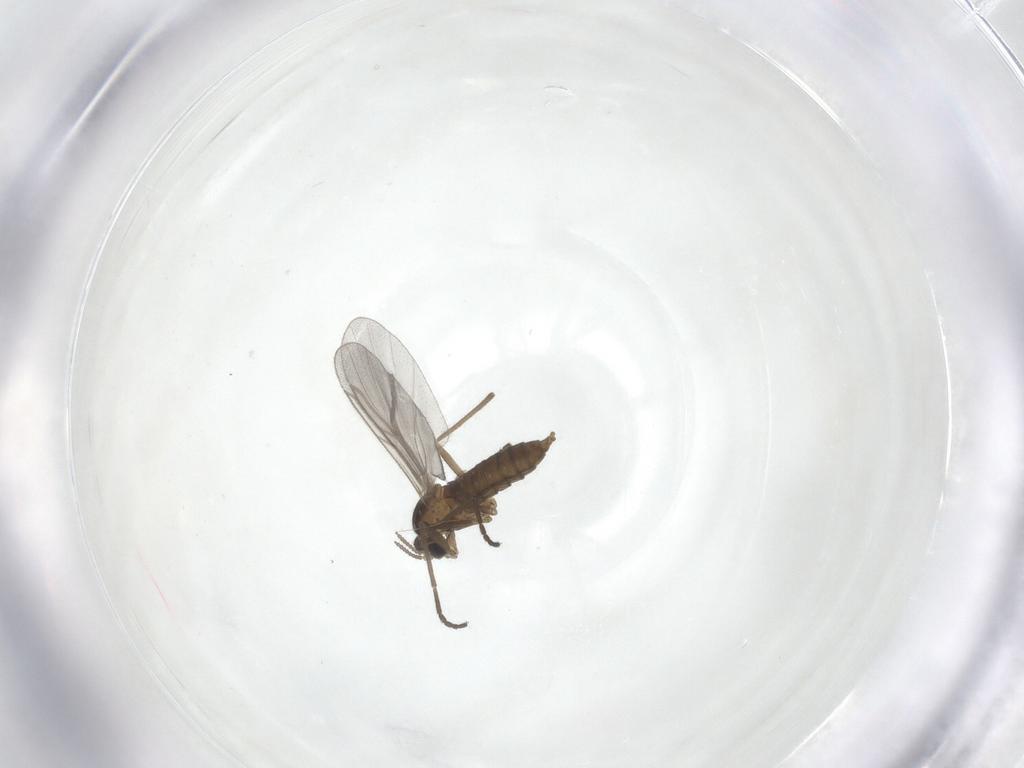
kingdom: Animalia
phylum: Arthropoda
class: Insecta
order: Diptera
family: Cecidomyiidae
